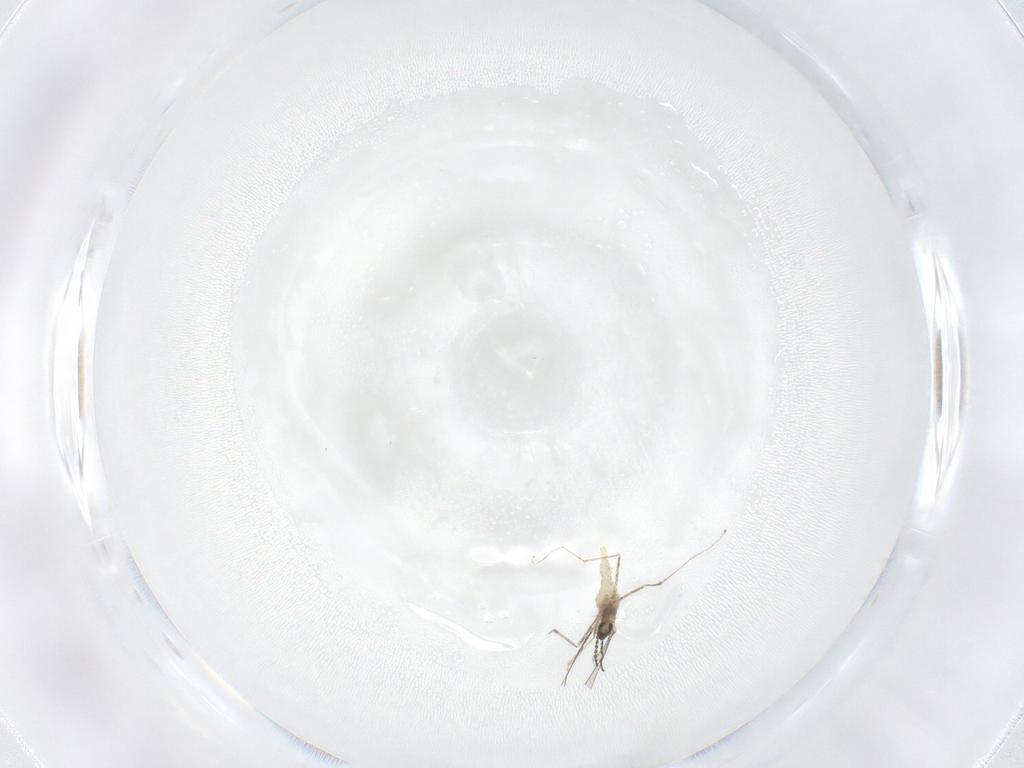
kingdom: Animalia
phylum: Arthropoda
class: Insecta
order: Diptera
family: Cecidomyiidae
